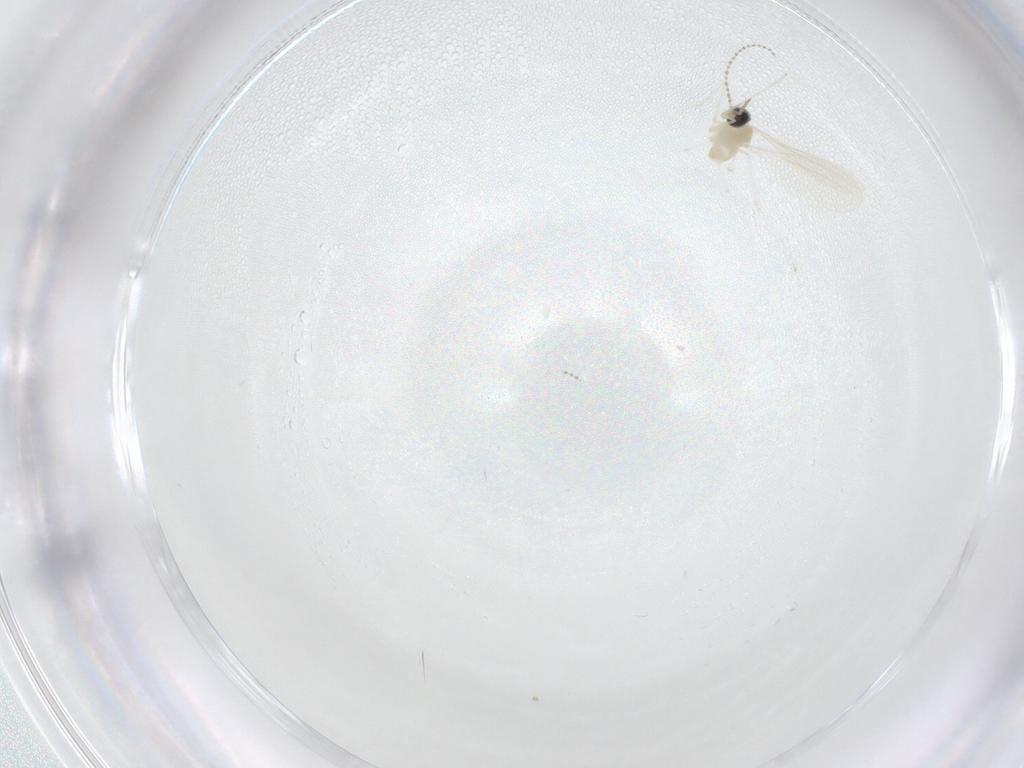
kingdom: Animalia
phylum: Arthropoda
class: Insecta
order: Diptera
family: Cecidomyiidae
